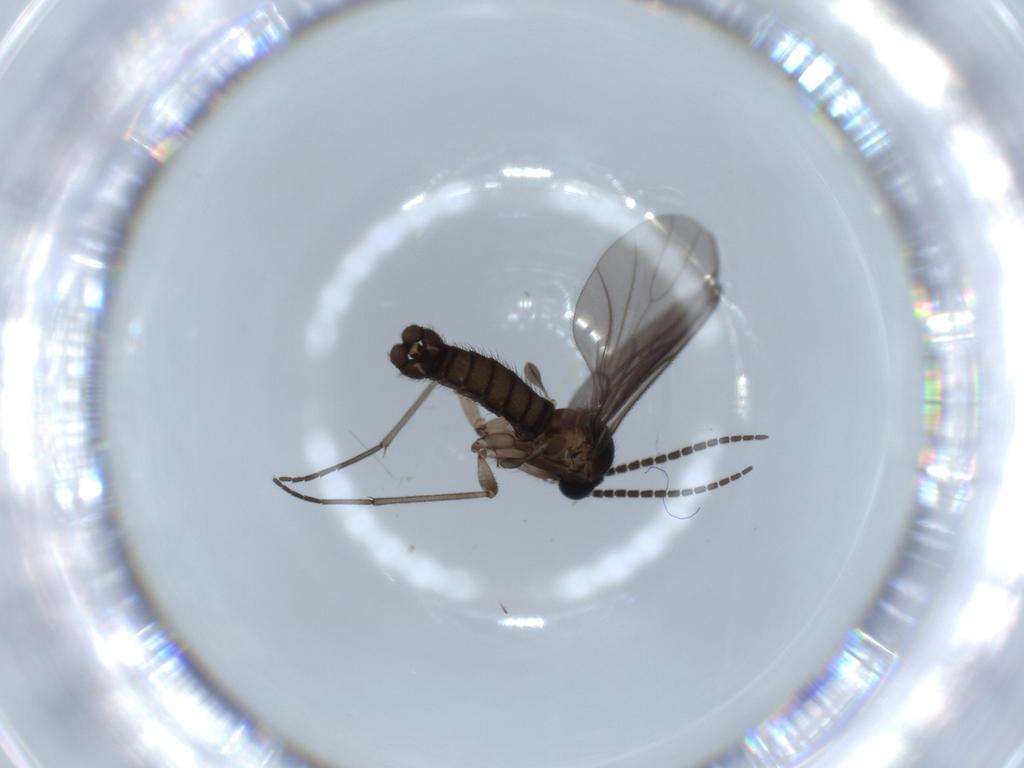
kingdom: Animalia
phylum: Arthropoda
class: Insecta
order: Diptera
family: Sciaridae
